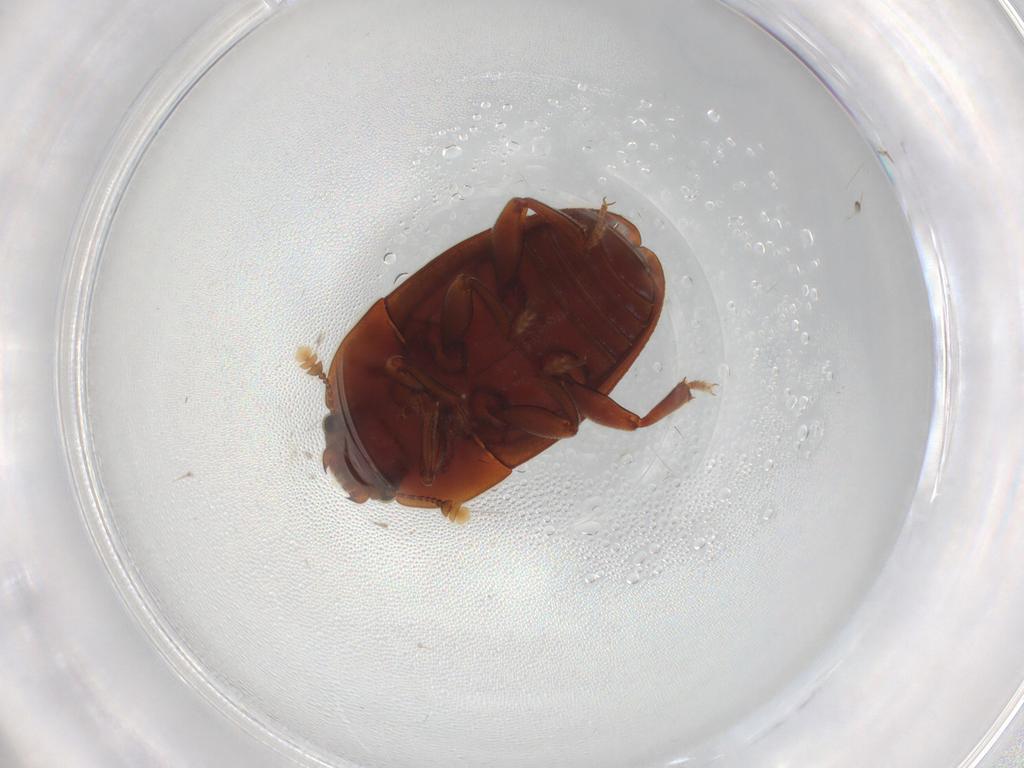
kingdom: Animalia
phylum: Arthropoda
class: Insecta
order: Coleoptera
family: Nitidulidae
